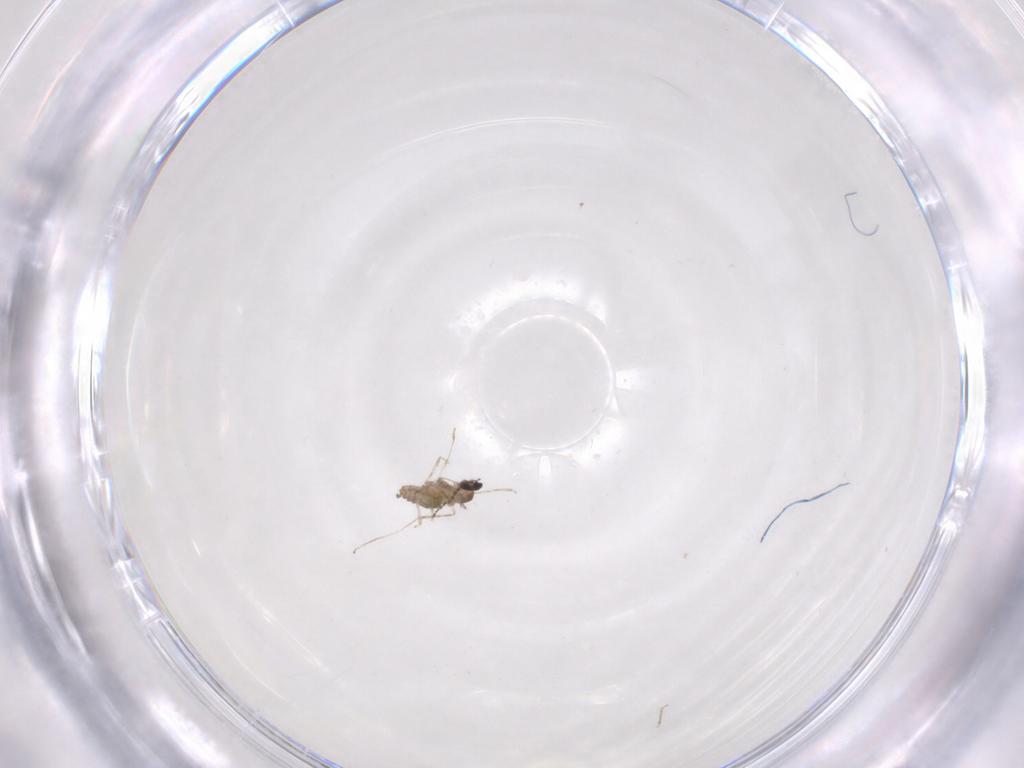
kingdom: Animalia
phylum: Arthropoda
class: Insecta
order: Diptera
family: Cecidomyiidae
